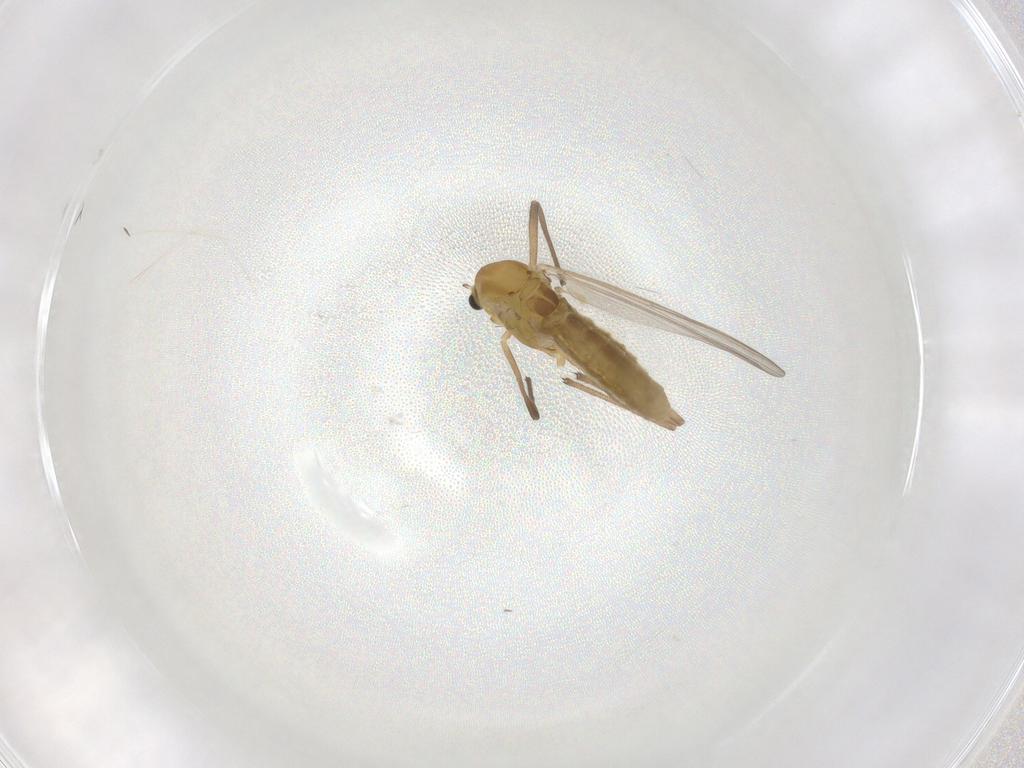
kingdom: Animalia
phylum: Arthropoda
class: Insecta
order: Diptera
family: Chironomidae
